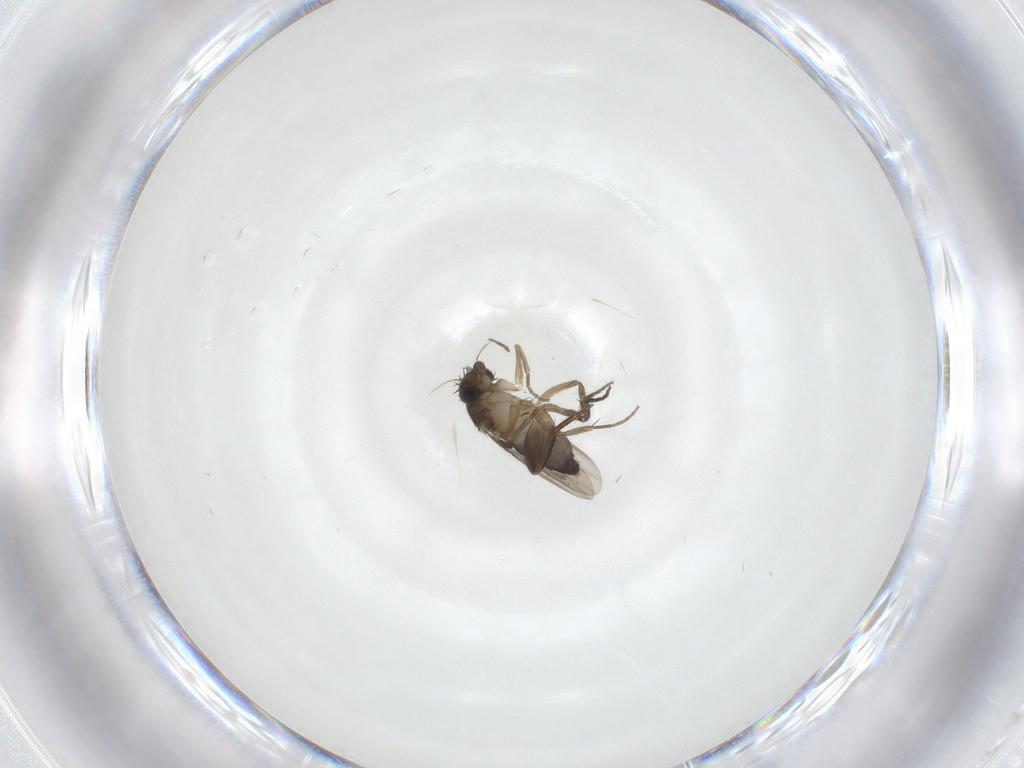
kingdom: Animalia
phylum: Arthropoda
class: Insecta
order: Diptera
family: Phoridae
